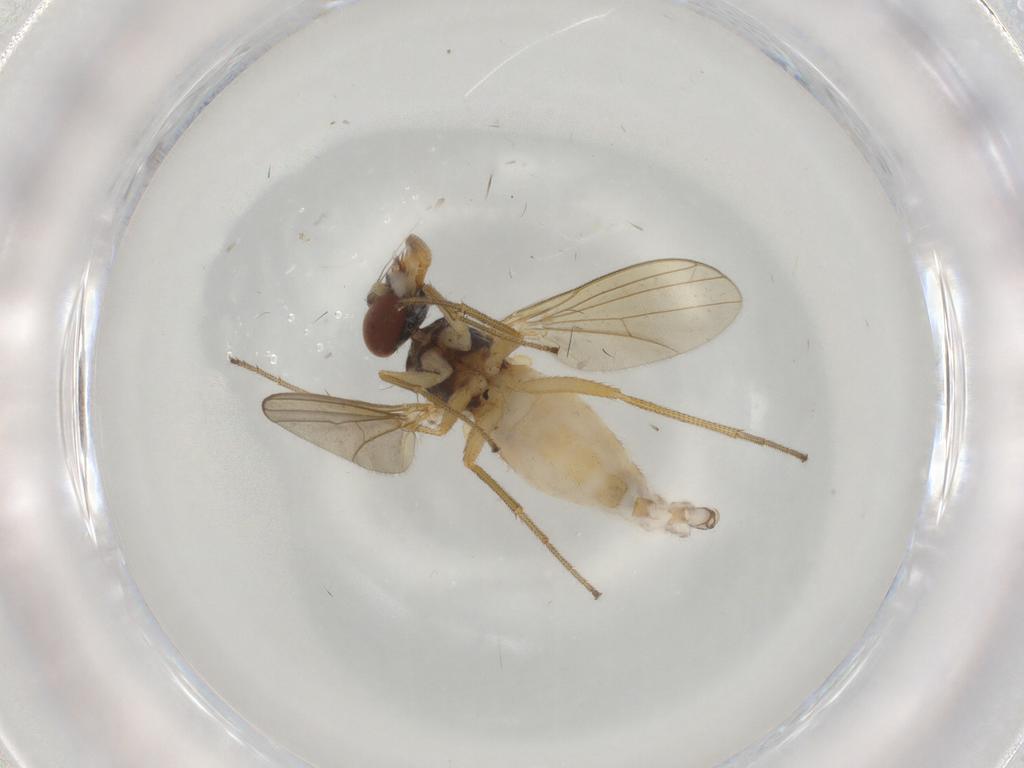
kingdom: Animalia
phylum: Arthropoda
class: Insecta
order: Diptera
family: Dolichopodidae
